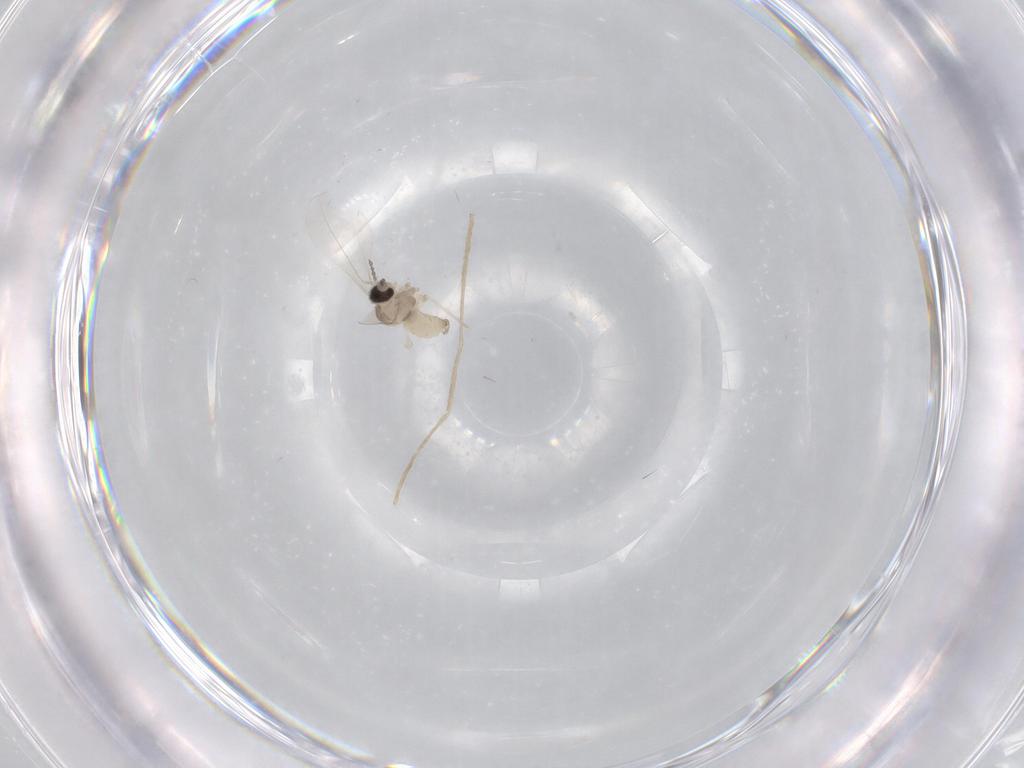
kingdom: Animalia
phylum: Arthropoda
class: Insecta
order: Diptera
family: Chironomidae
